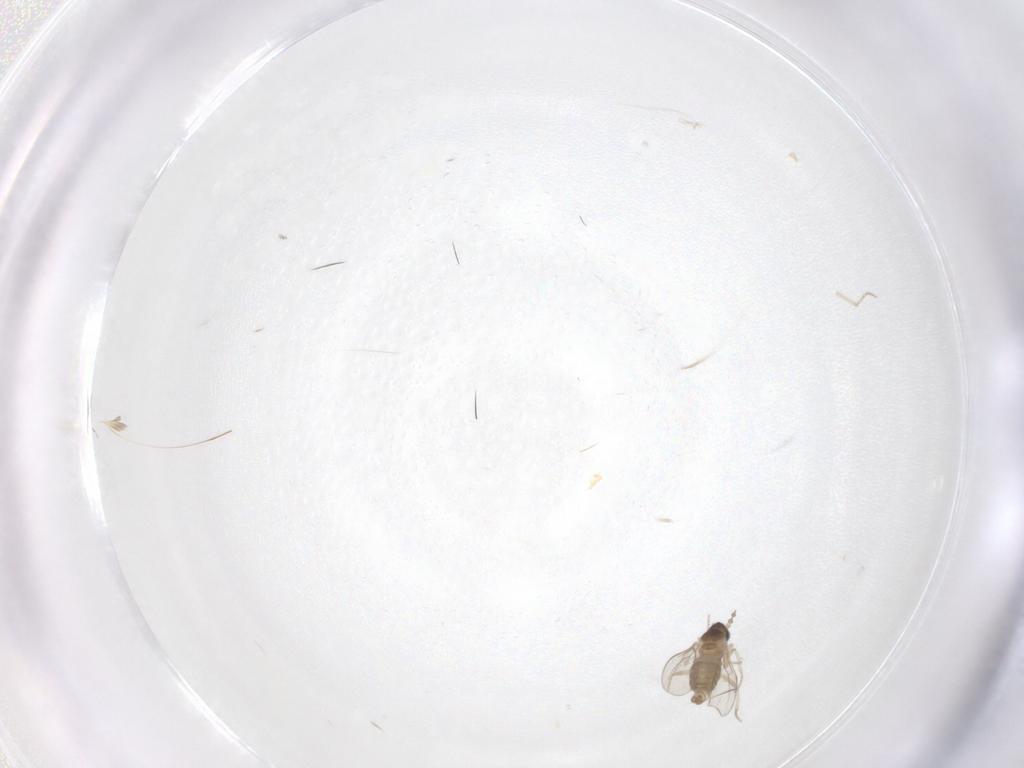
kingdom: Animalia
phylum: Arthropoda
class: Insecta
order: Diptera
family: Cecidomyiidae
